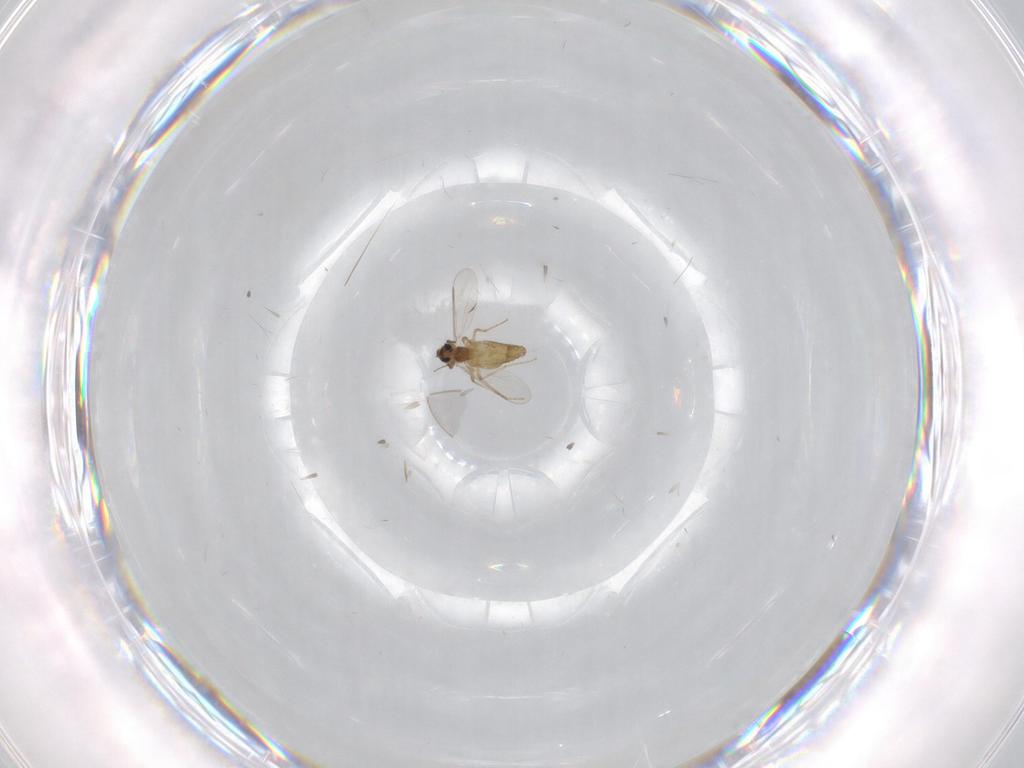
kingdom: Animalia
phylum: Arthropoda
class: Insecta
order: Diptera
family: Chironomidae
